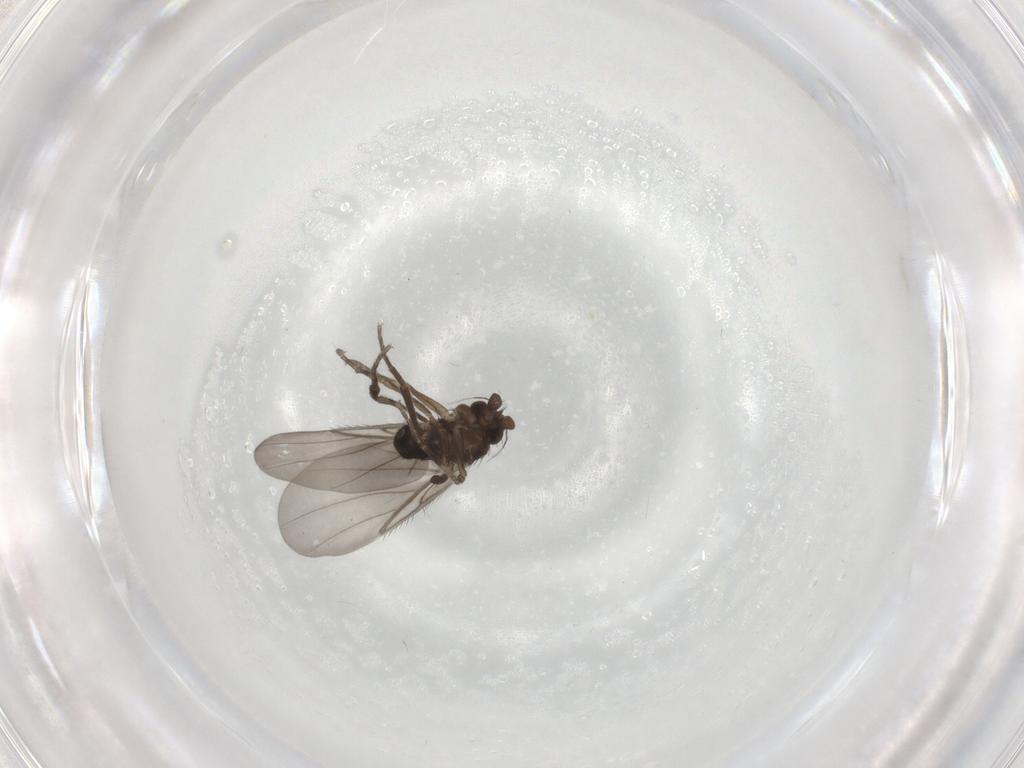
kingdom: Animalia
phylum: Arthropoda
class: Insecta
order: Diptera
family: Phoridae
